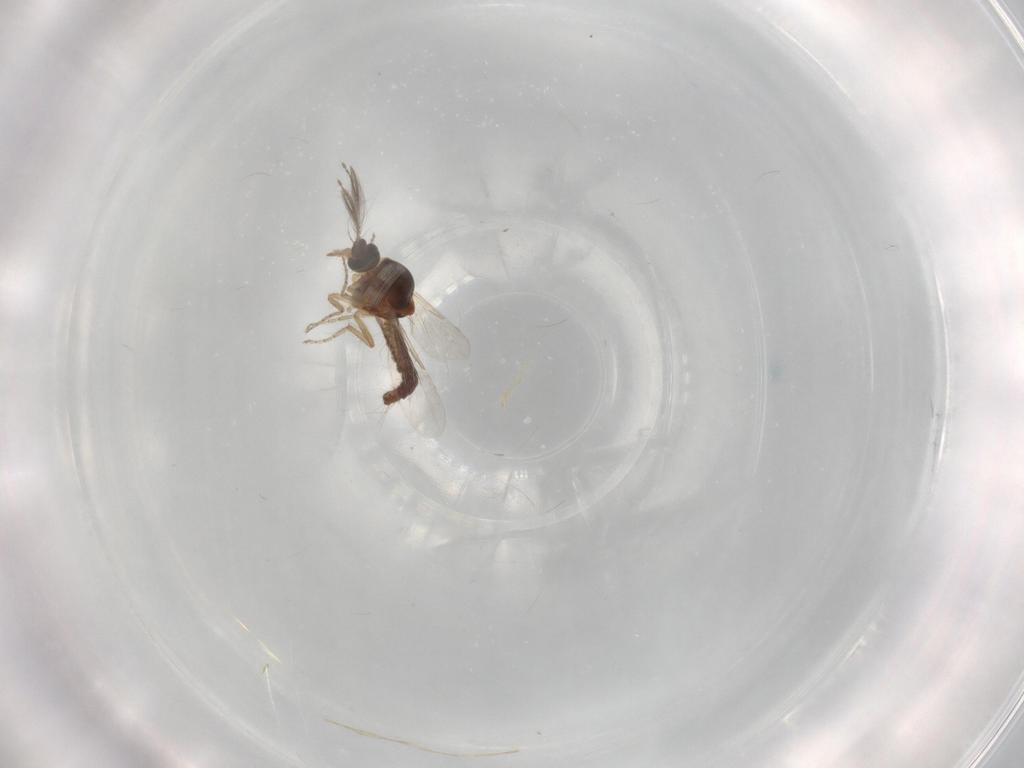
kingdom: Animalia
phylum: Arthropoda
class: Insecta
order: Diptera
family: Ceratopogonidae
